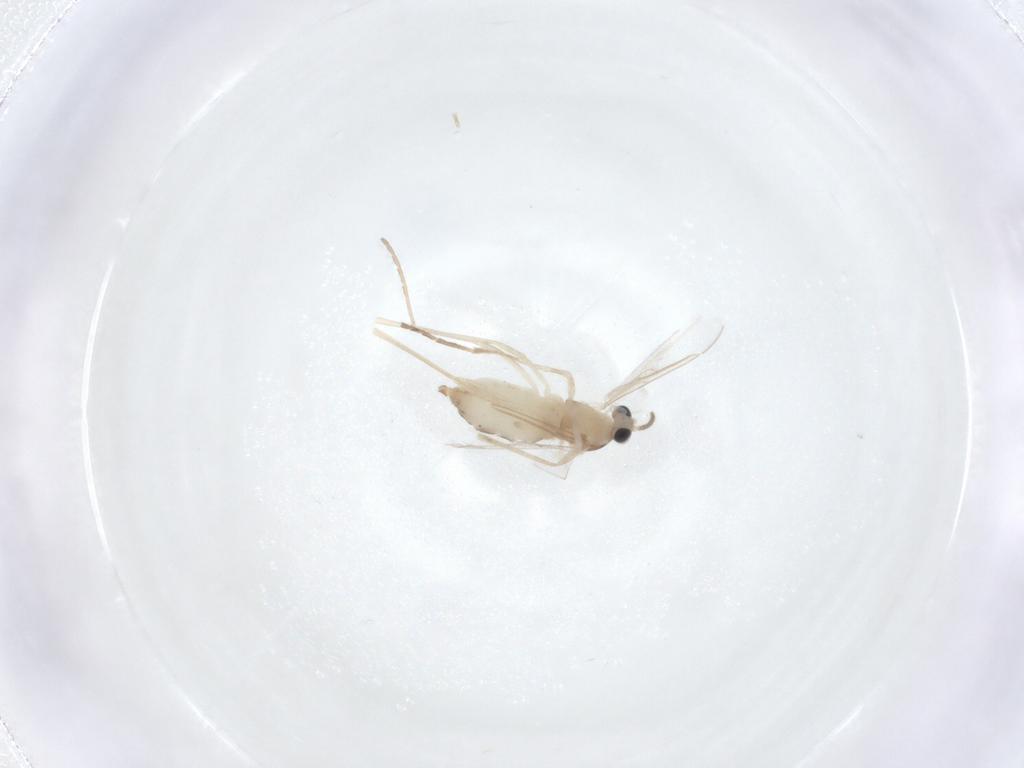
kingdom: Animalia
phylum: Arthropoda
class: Insecta
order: Diptera
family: Cecidomyiidae
